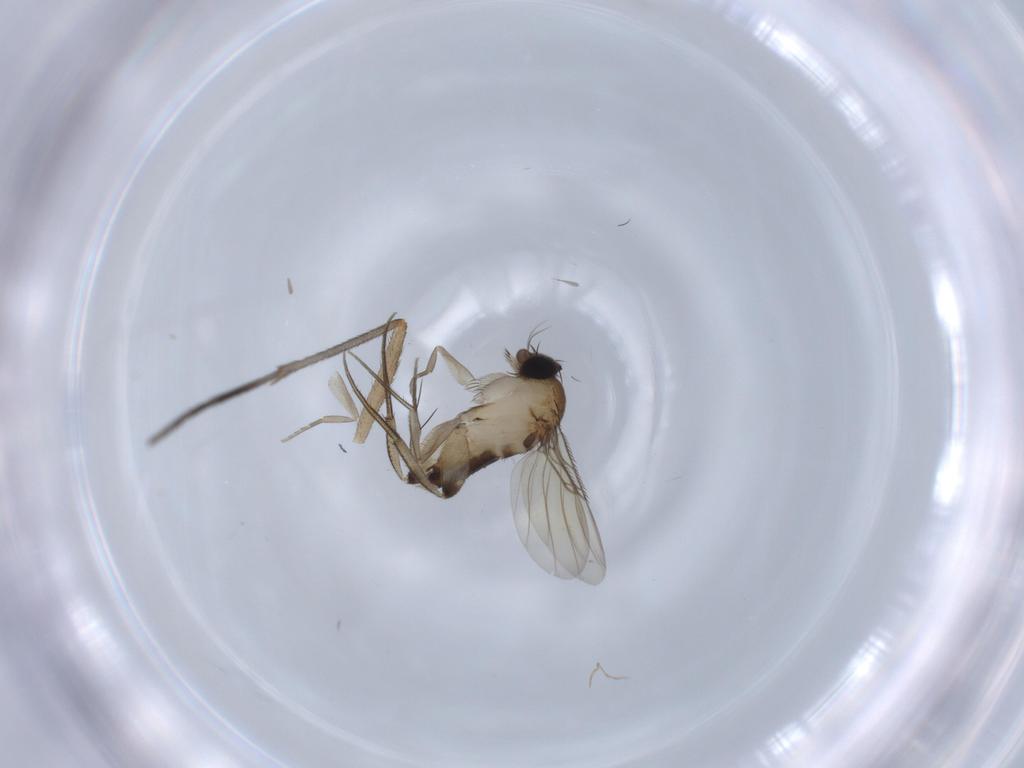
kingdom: Animalia
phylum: Arthropoda
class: Insecta
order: Diptera
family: Phoridae
